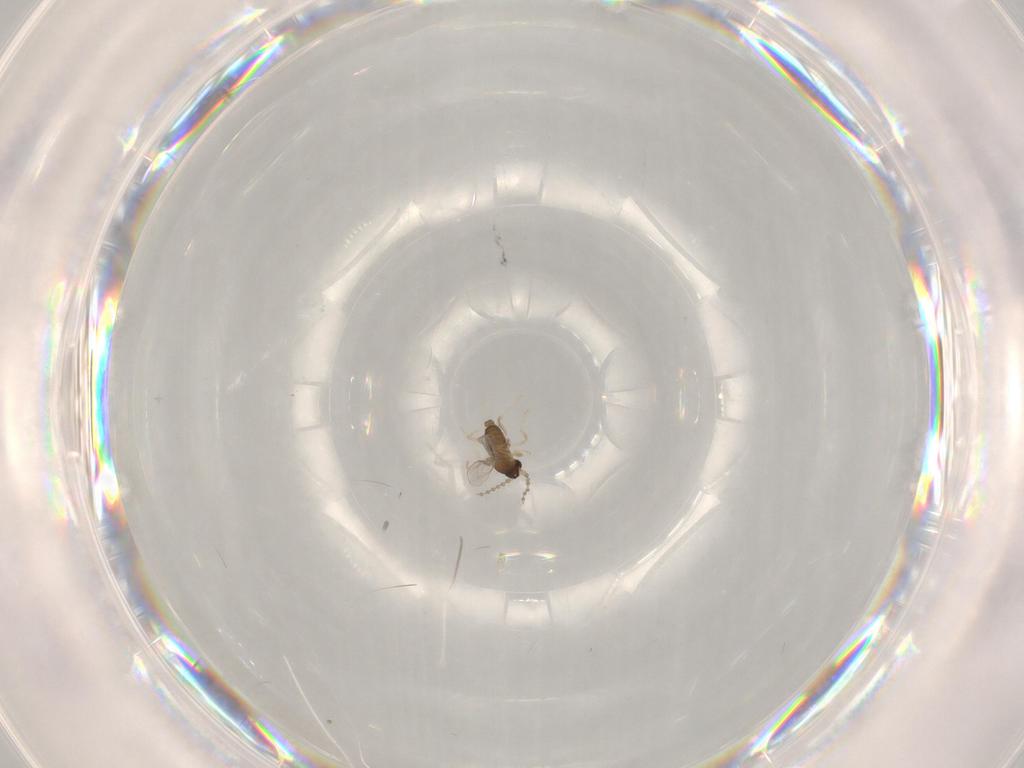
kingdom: Animalia
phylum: Arthropoda
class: Insecta
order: Diptera
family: Cecidomyiidae
